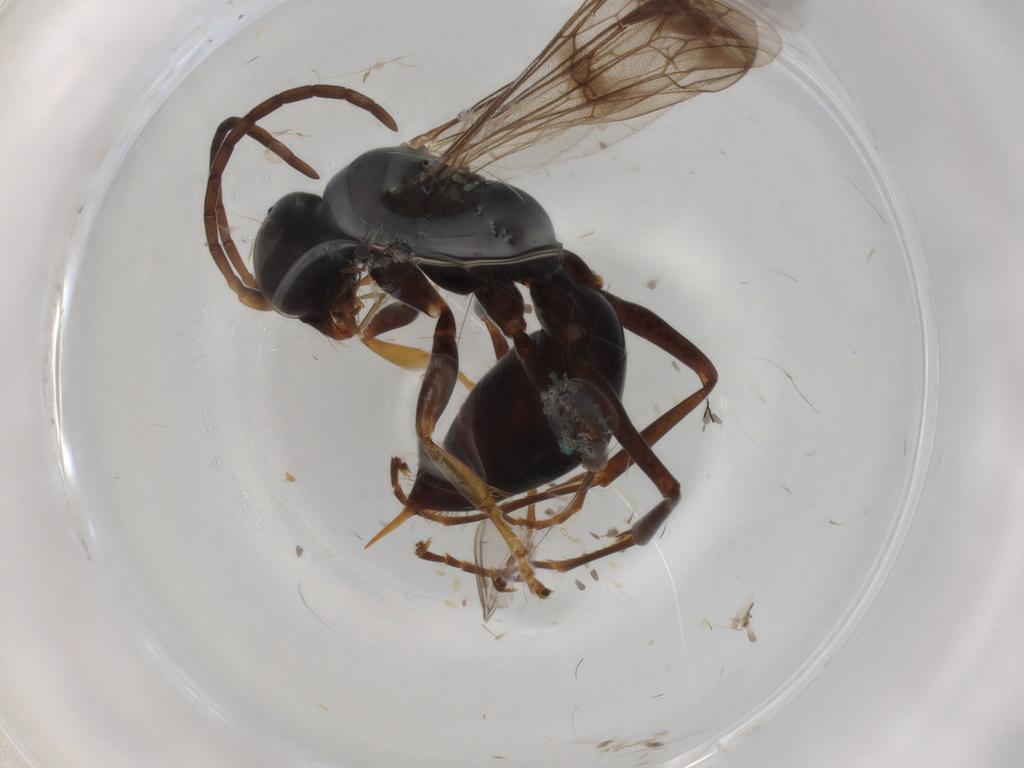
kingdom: Animalia
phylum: Arthropoda
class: Insecta
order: Hymenoptera
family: Pompilidae
